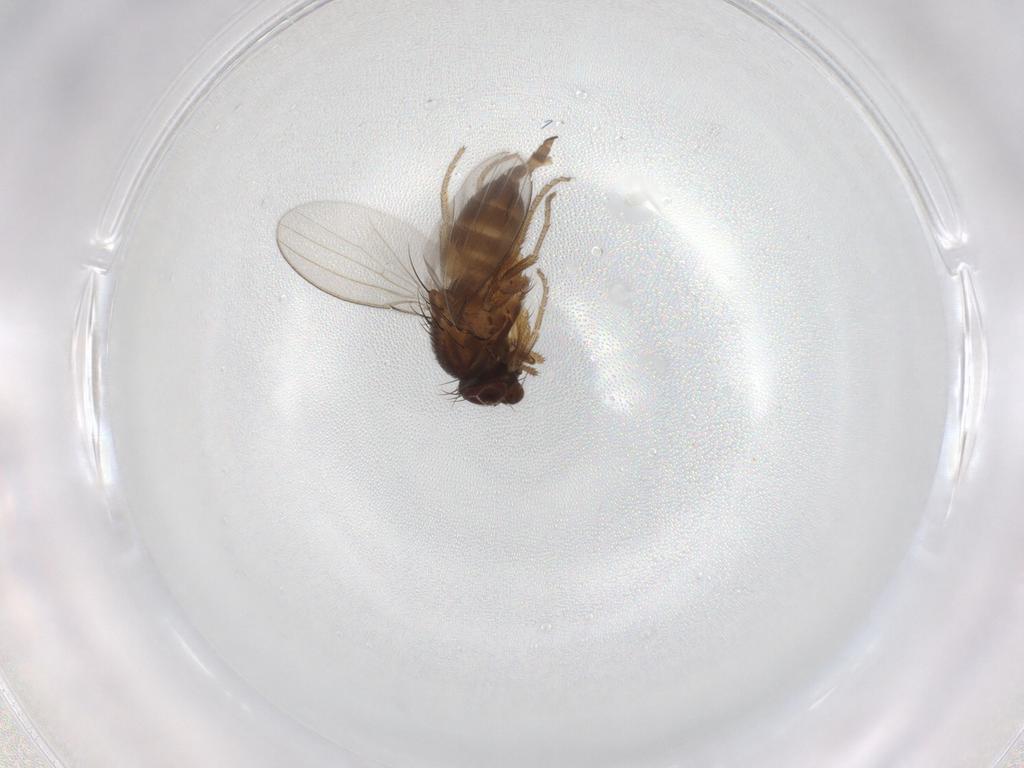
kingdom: Animalia
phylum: Arthropoda
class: Insecta
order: Diptera
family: Milichiidae
